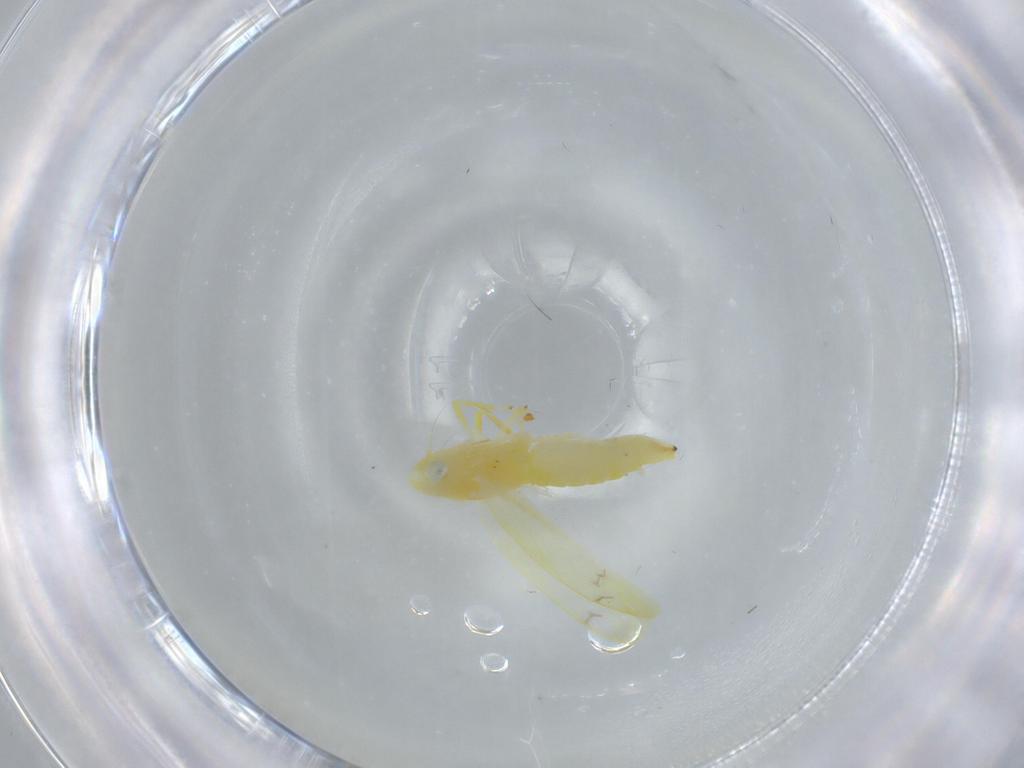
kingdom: Animalia
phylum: Arthropoda
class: Insecta
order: Hemiptera
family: Cicadellidae
